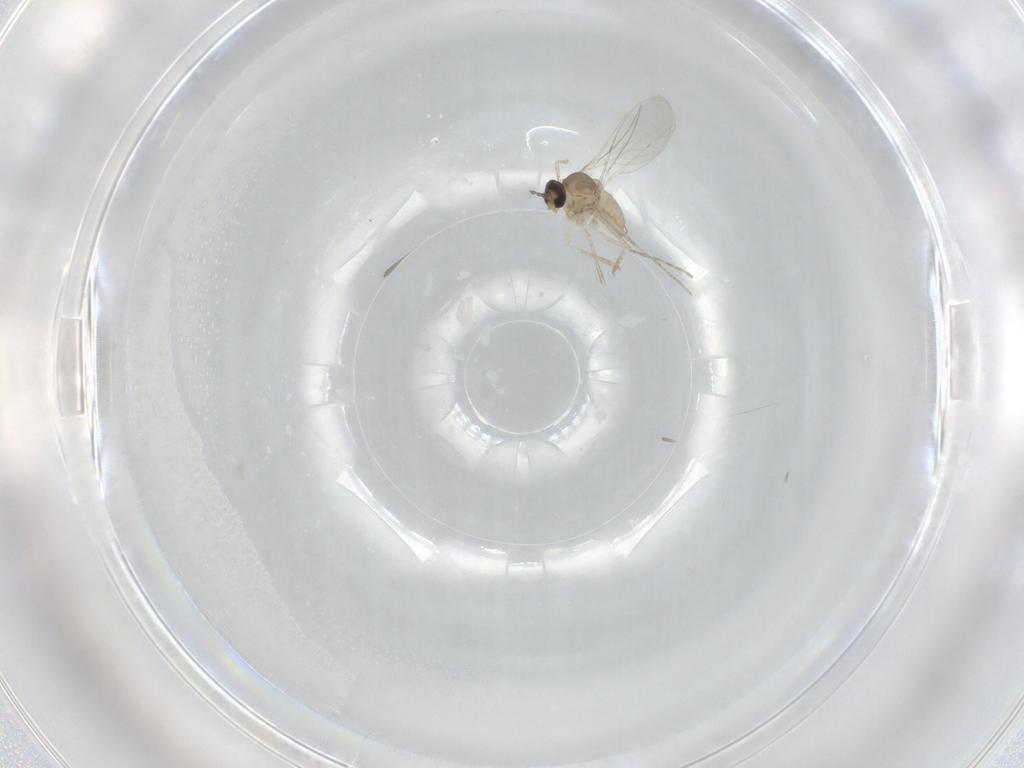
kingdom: Animalia
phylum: Arthropoda
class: Insecta
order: Diptera
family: Cecidomyiidae
